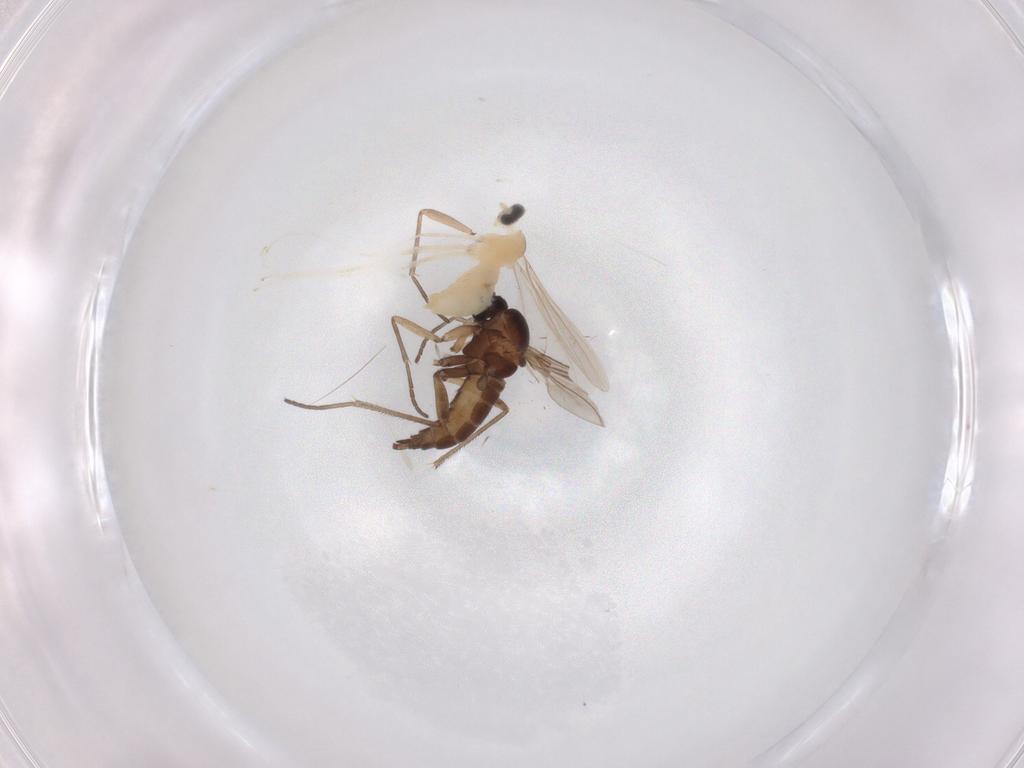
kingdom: Animalia
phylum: Arthropoda
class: Insecta
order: Diptera
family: Cecidomyiidae
